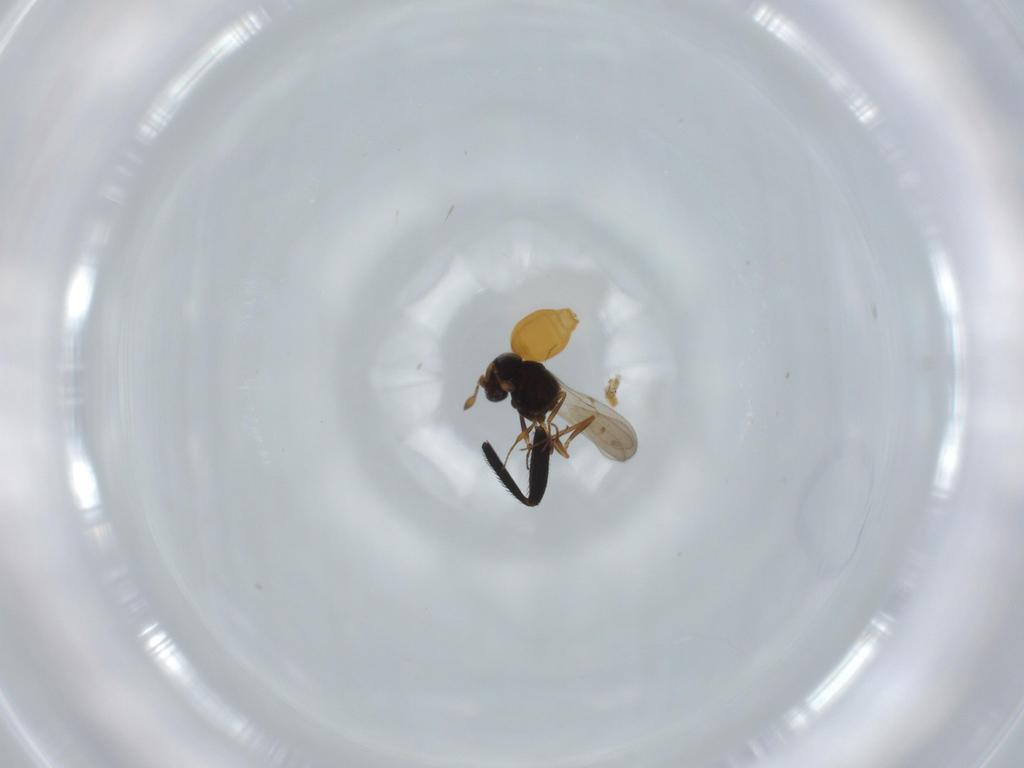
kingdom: Animalia
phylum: Arthropoda
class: Insecta
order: Hymenoptera
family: Scelionidae
